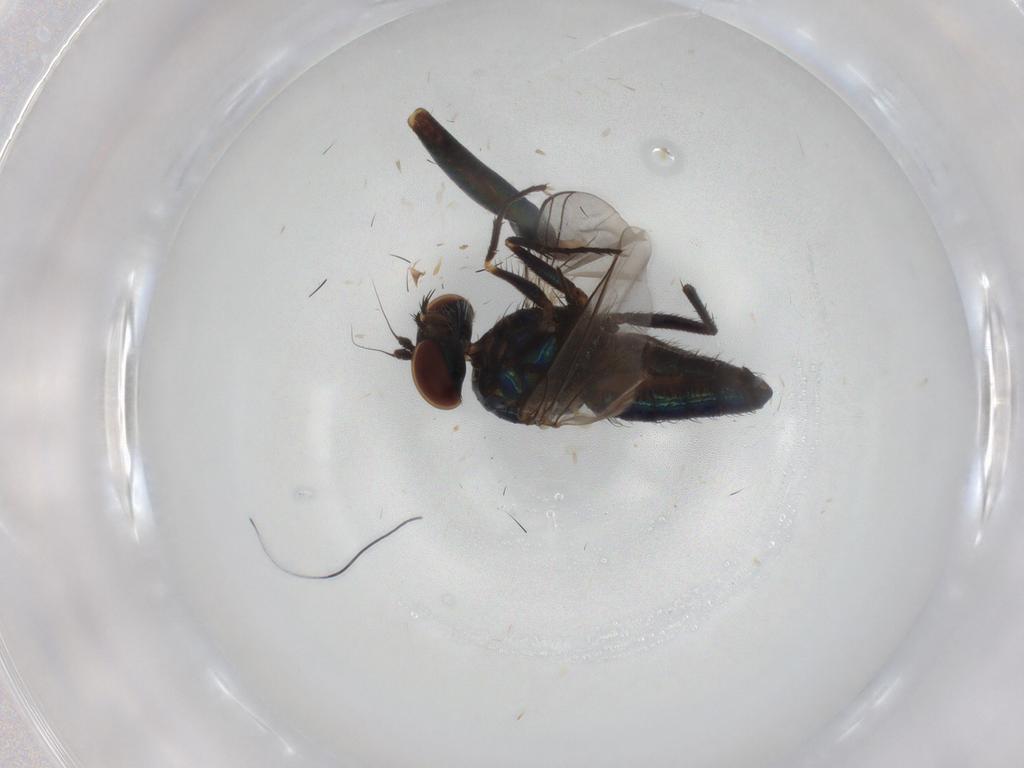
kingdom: Animalia
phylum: Arthropoda
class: Insecta
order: Diptera
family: Dolichopodidae
